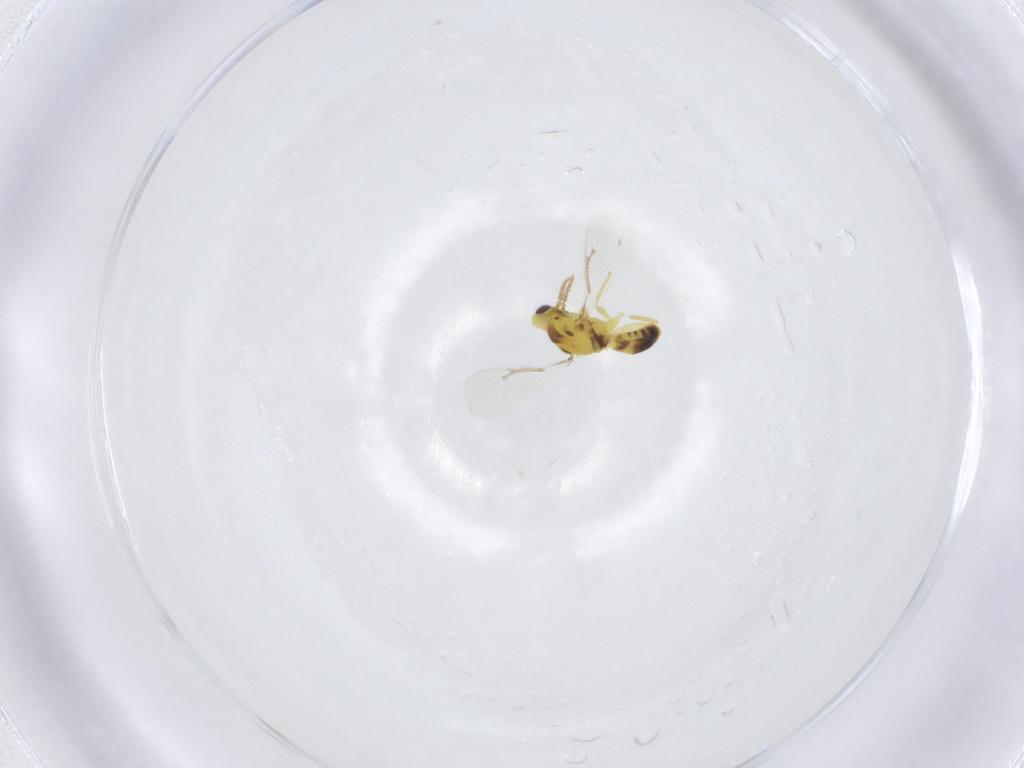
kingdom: Animalia
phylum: Arthropoda
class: Insecta
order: Hymenoptera
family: Eulophidae
